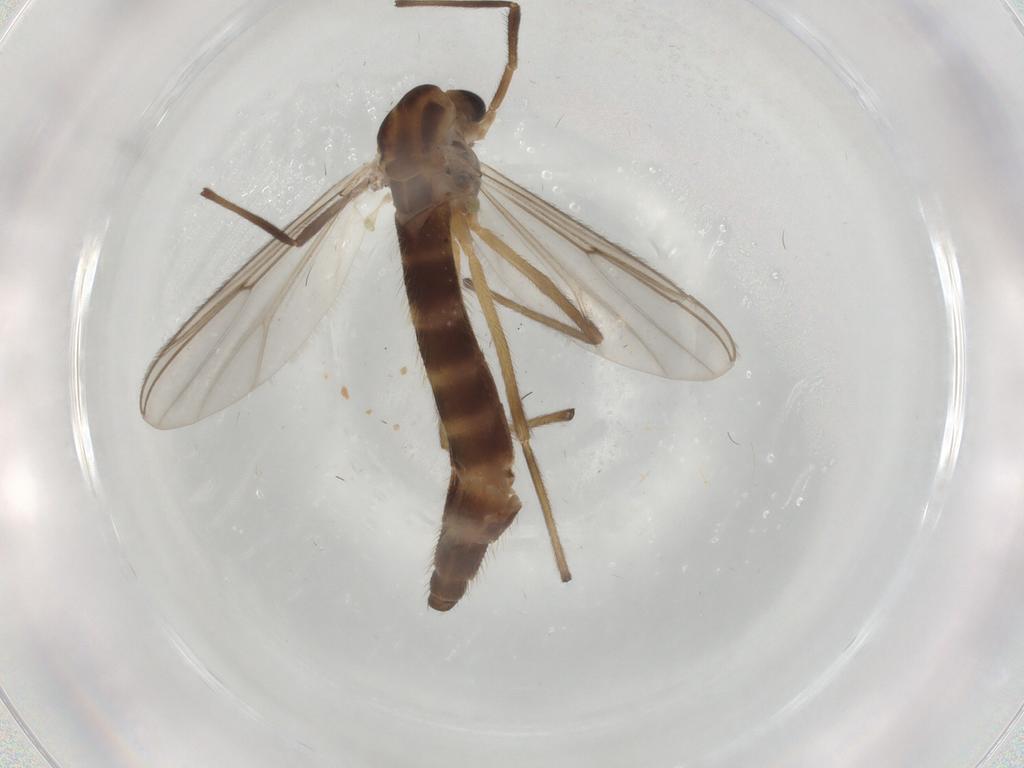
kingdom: Animalia
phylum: Arthropoda
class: Insecta
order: Diptera
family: Chironomidae
